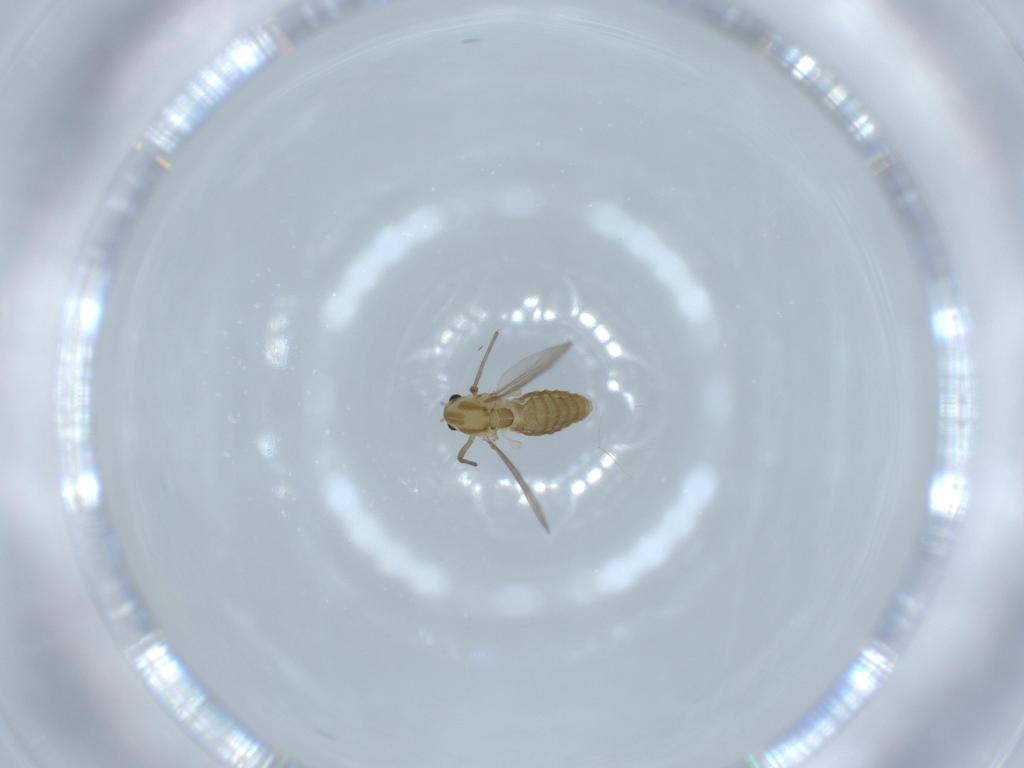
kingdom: Animalia
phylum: Arthropoda
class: Insecta
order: Diptera
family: Chironomidae
